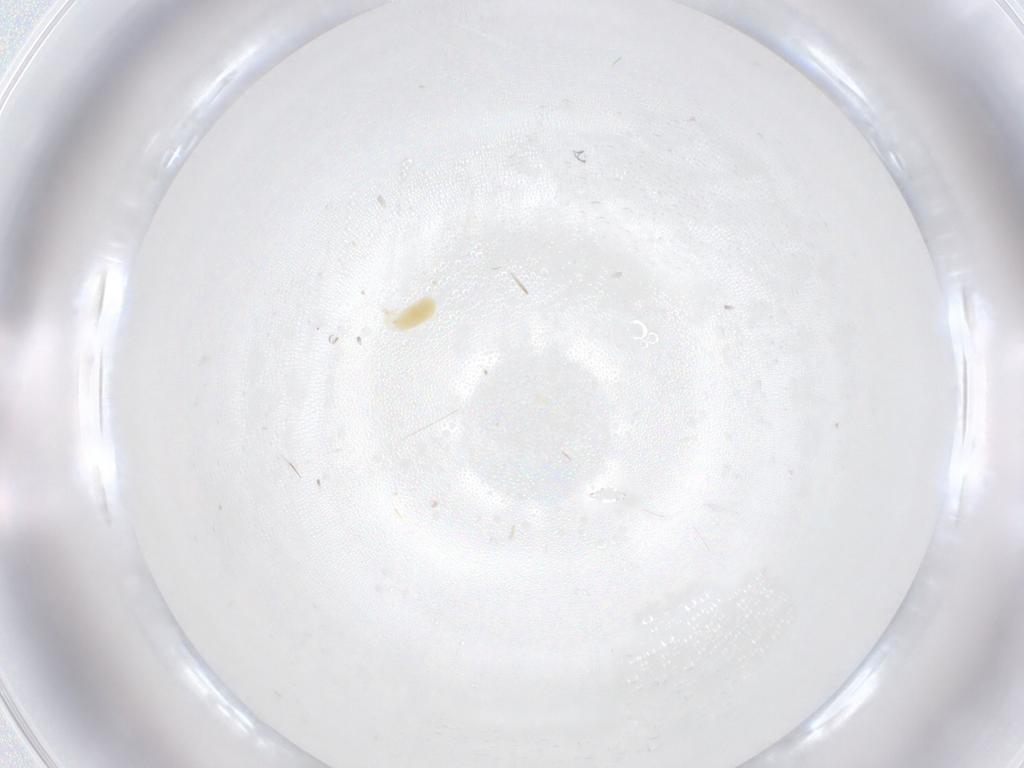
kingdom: Animalia
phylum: Arthropoda
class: Arachnida
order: Trombidiformes
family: Tetranychidae
